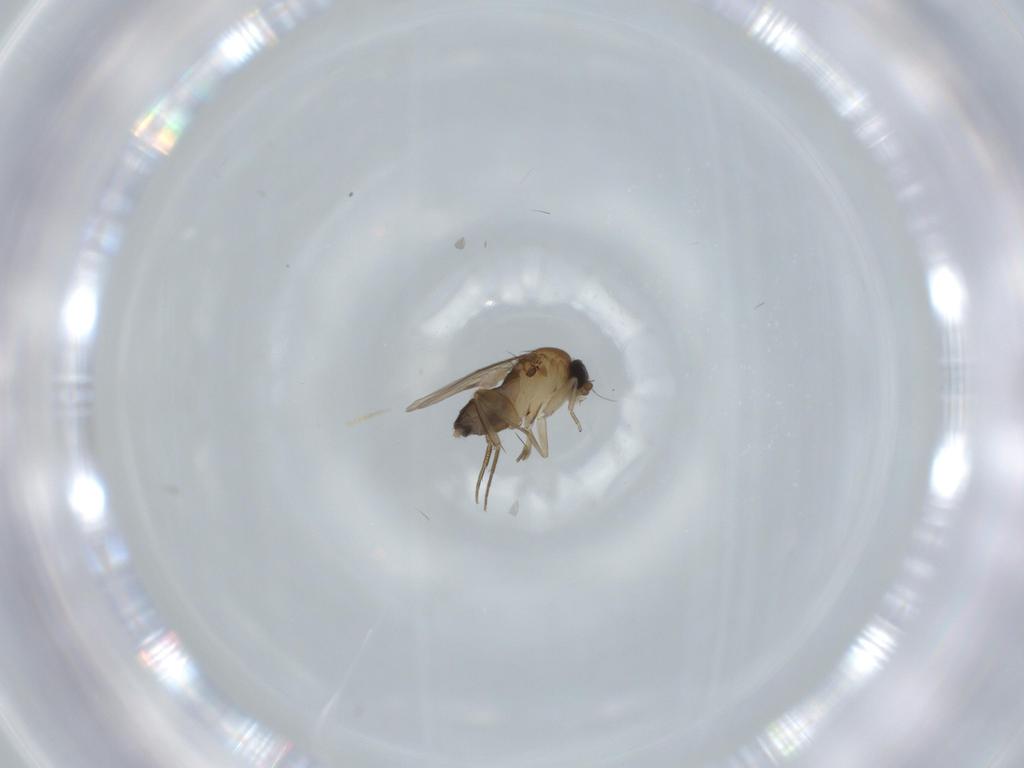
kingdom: Animalia
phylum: Arthropoda
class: Insecta
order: Diptera
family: Phoridae
